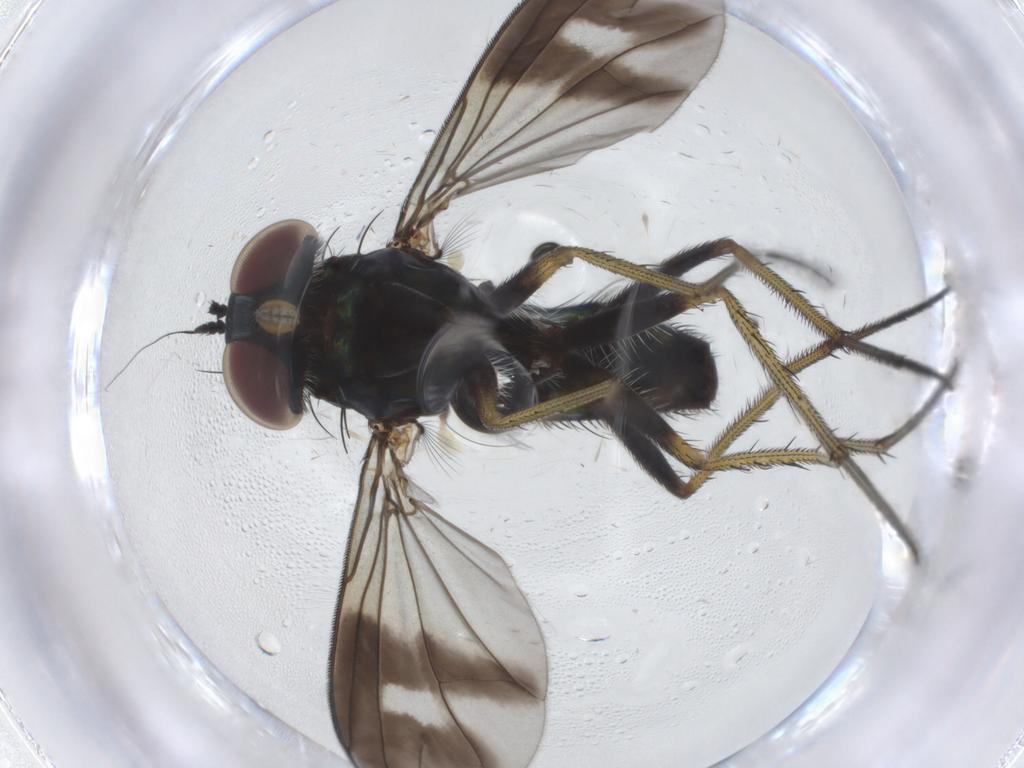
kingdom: Animalia
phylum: Arthropoda
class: Insecta
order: Diptera
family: Dolichopodidae
